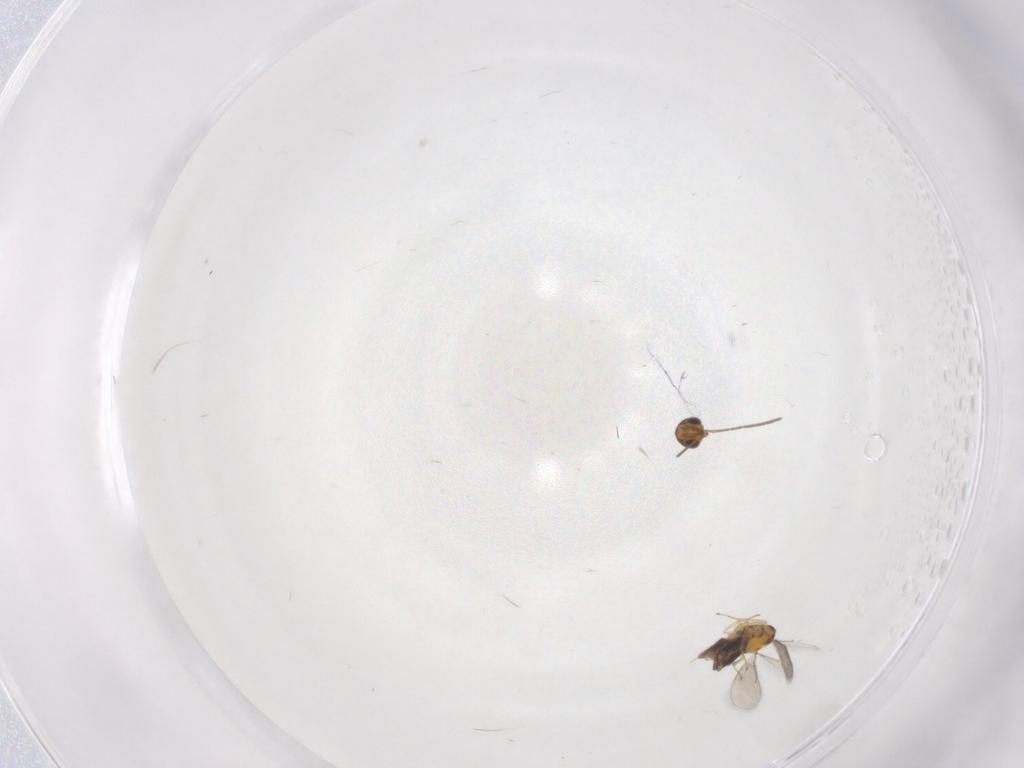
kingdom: Animalia
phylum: Arthropoda
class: Insecta
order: Hymenoptera
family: Aphelinidae
